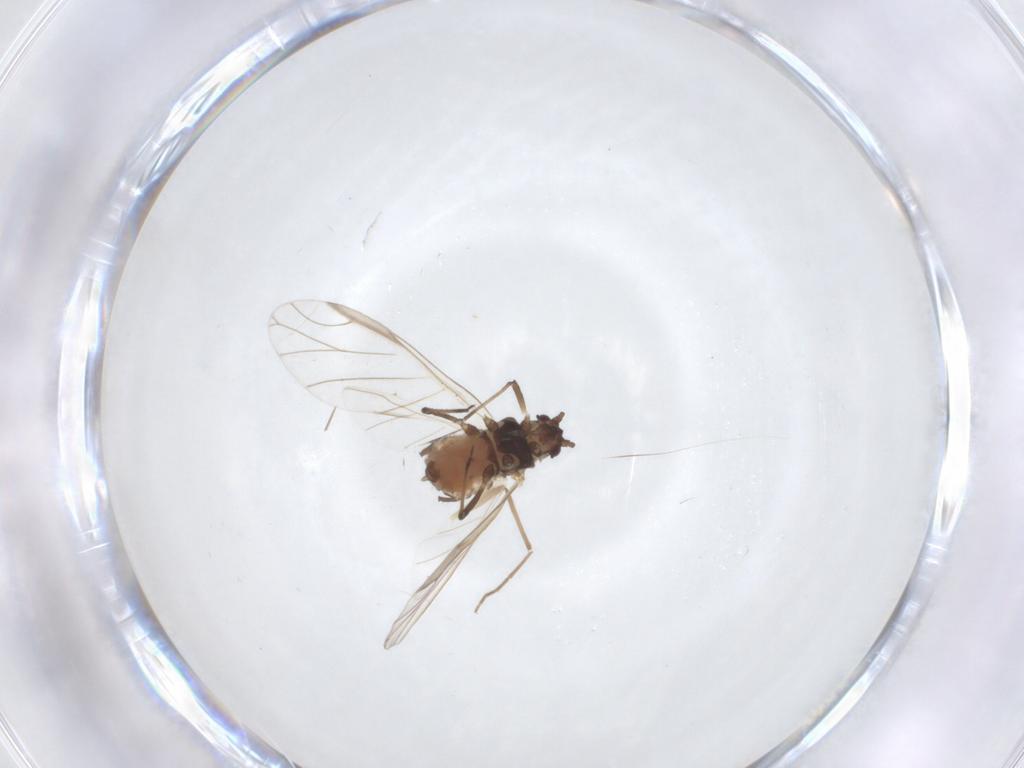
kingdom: Animalia
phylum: Arthropoda
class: Insecta
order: Hemiptera
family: Aphididae
